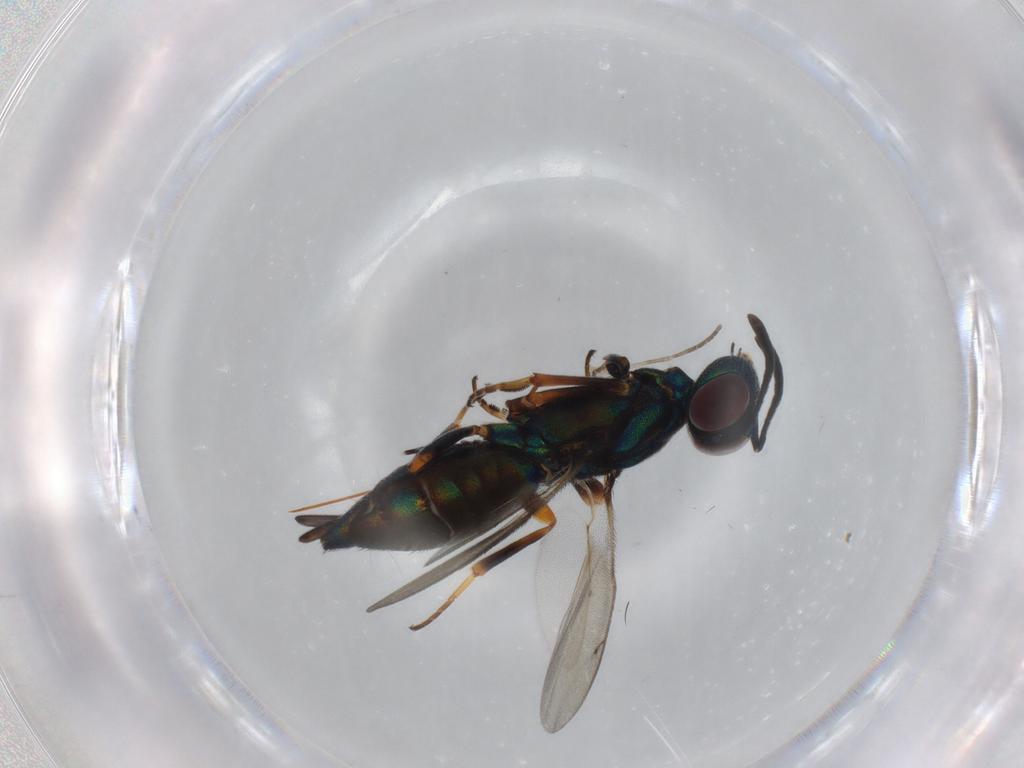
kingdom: Animalia
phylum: Arthropoda
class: Insecta
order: Hymenoptera
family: Eupelmidae
